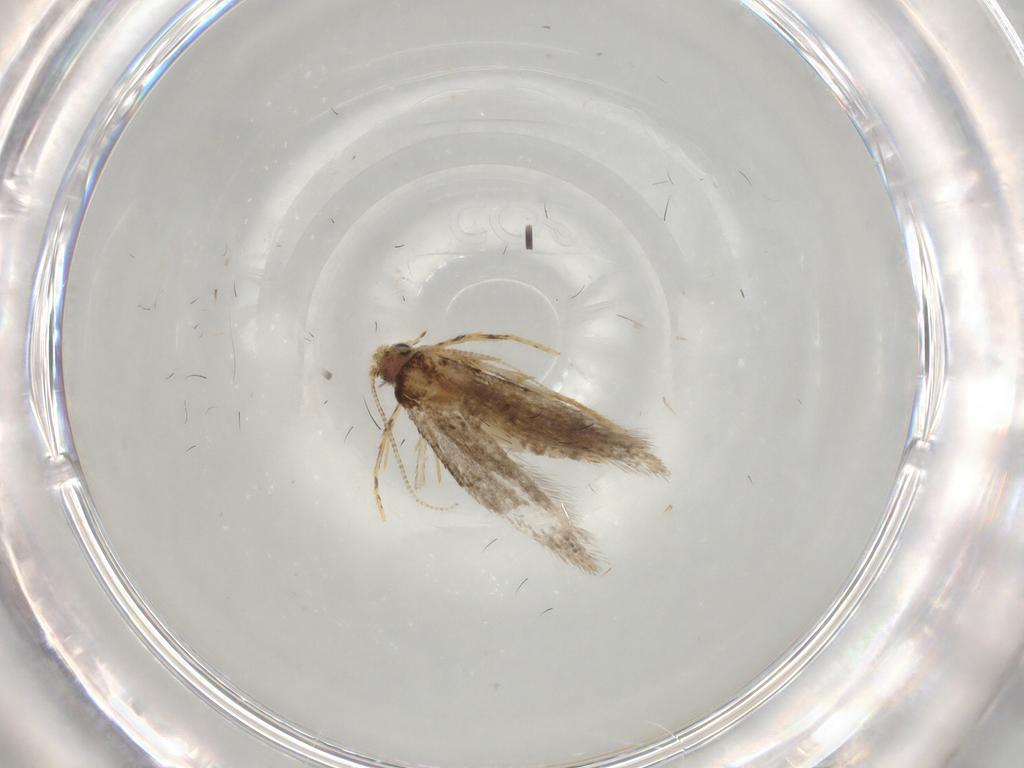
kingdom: Animalia
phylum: Arthropoda
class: Insecta
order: Lepidoptera
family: Tineidae
